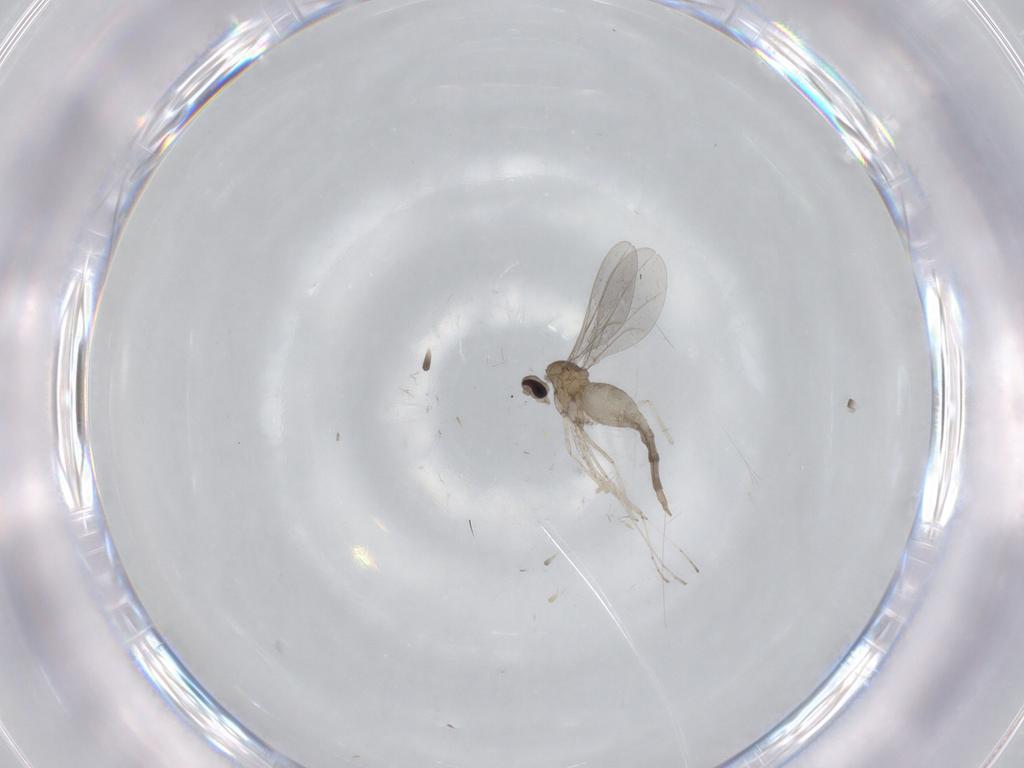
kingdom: Animalia
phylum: Arthropoda
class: Insecta
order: Diptera
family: Cecidomyiidae
